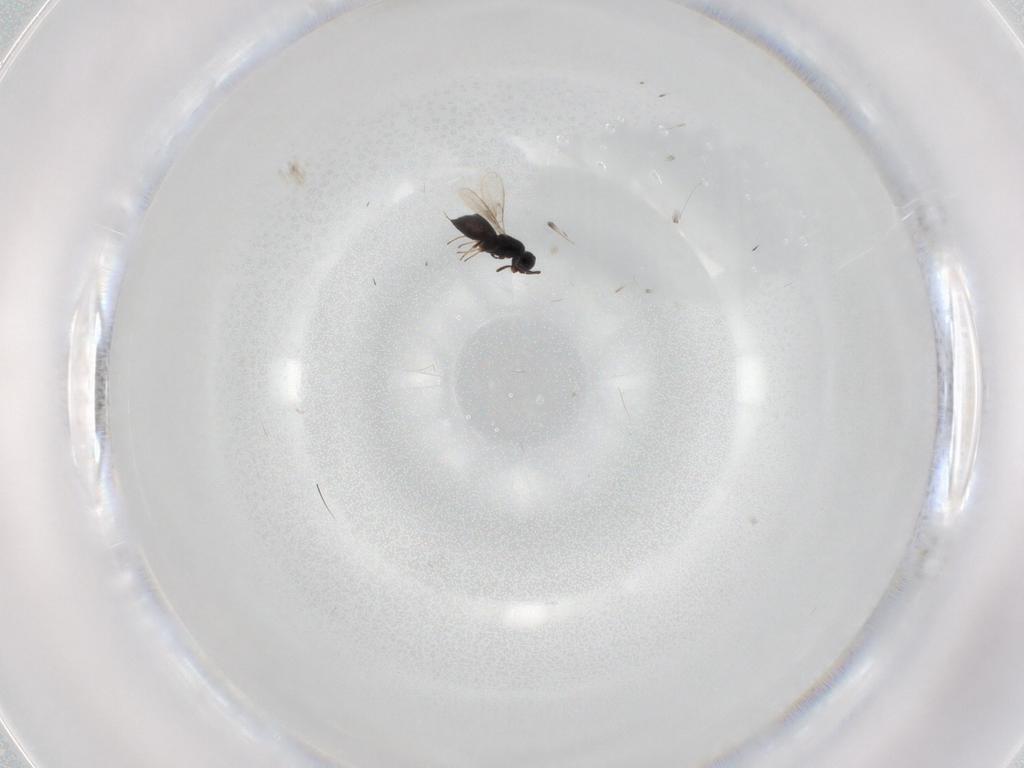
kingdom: Animalia
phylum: Arthropoda
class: Insecta
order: Hymenoptera
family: Scelionidae
